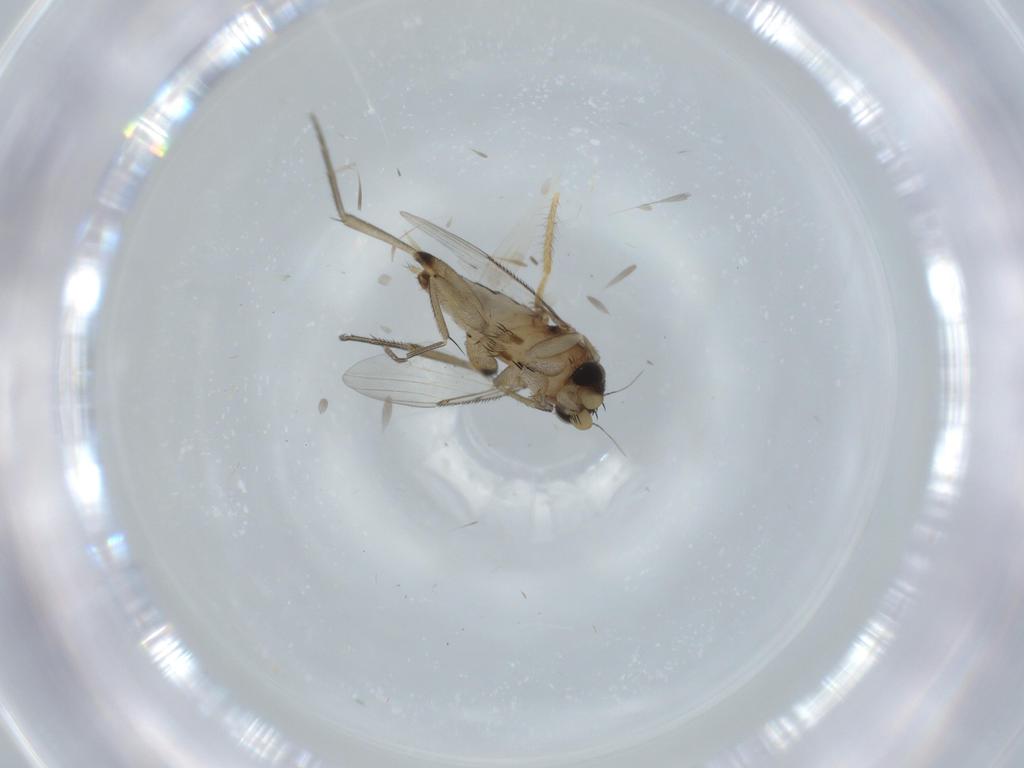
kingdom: Animalia
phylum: Arthropoda
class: Insecta
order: Diptera
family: Phoridae
